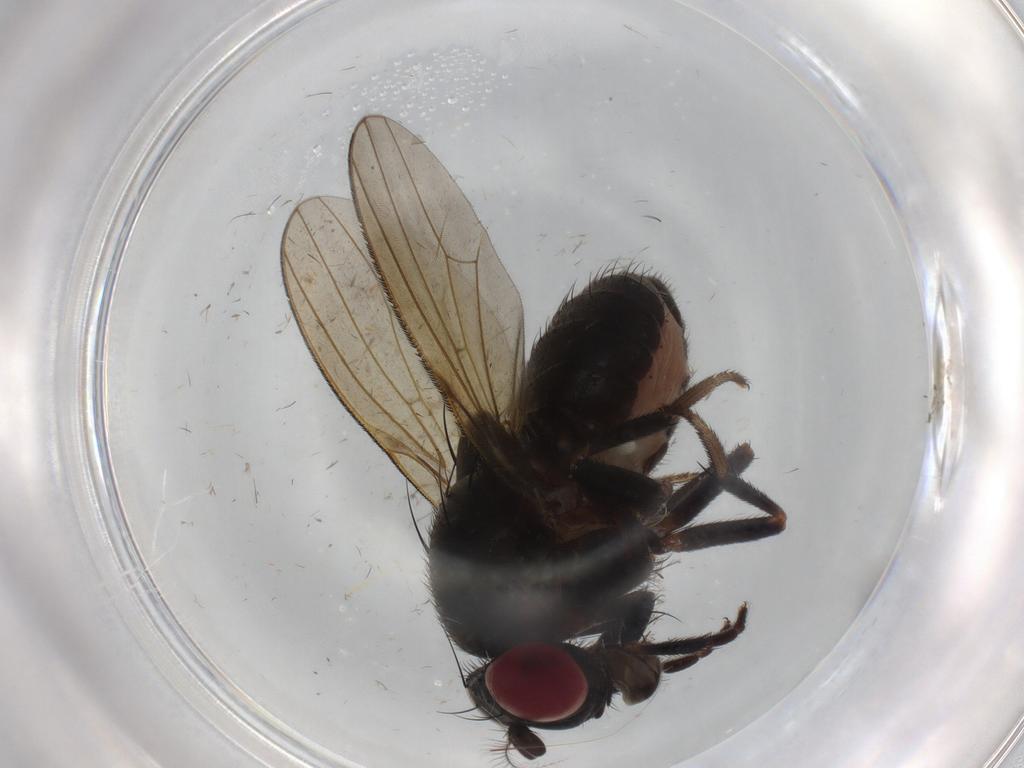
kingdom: Animalia
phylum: Arthropoda
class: Insecta
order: Diptera
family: Lauxaniidae
